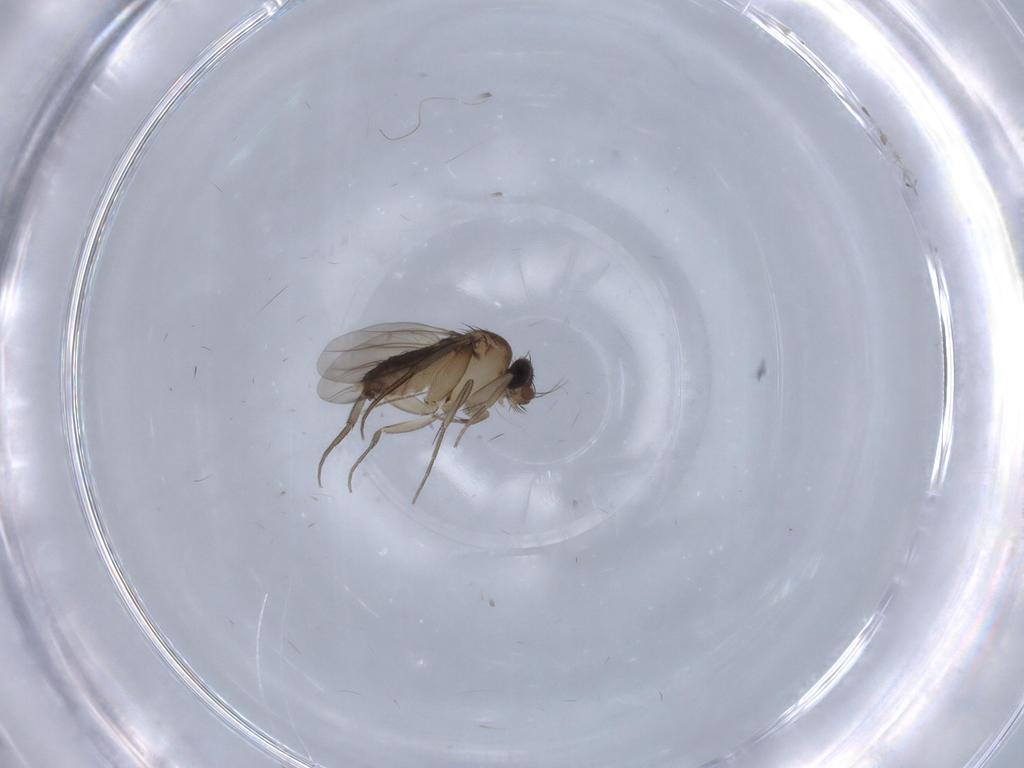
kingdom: Animalia
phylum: Arthropoda
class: Insecta
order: Diptera
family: Phoridae
